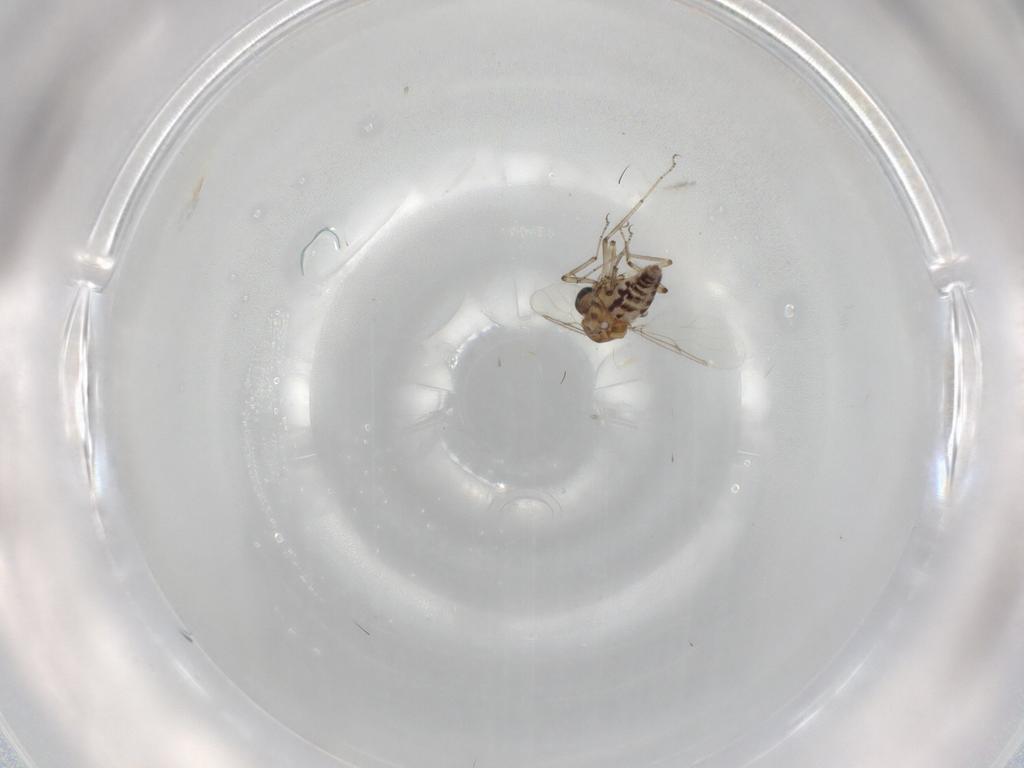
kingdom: Animalia
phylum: Arthropoda
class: Insecta
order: Diptera
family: Ceratopogonidae
